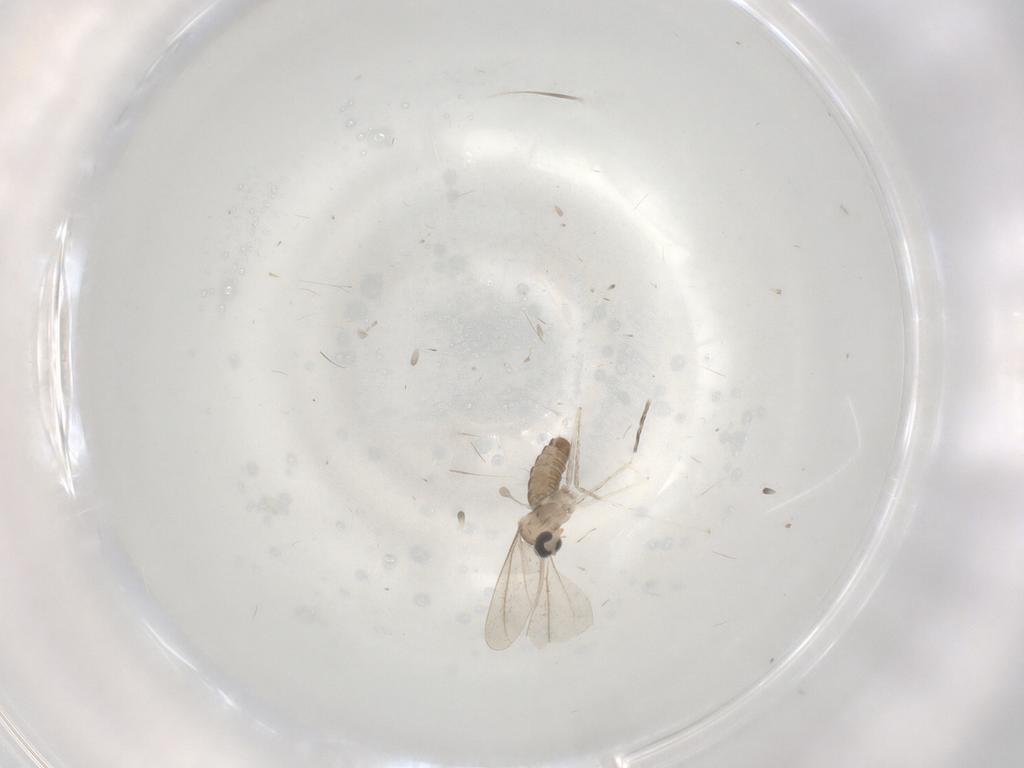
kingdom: Animalia
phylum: Arthropoda
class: Insecta
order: Diptera
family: Cecidomyiidae
